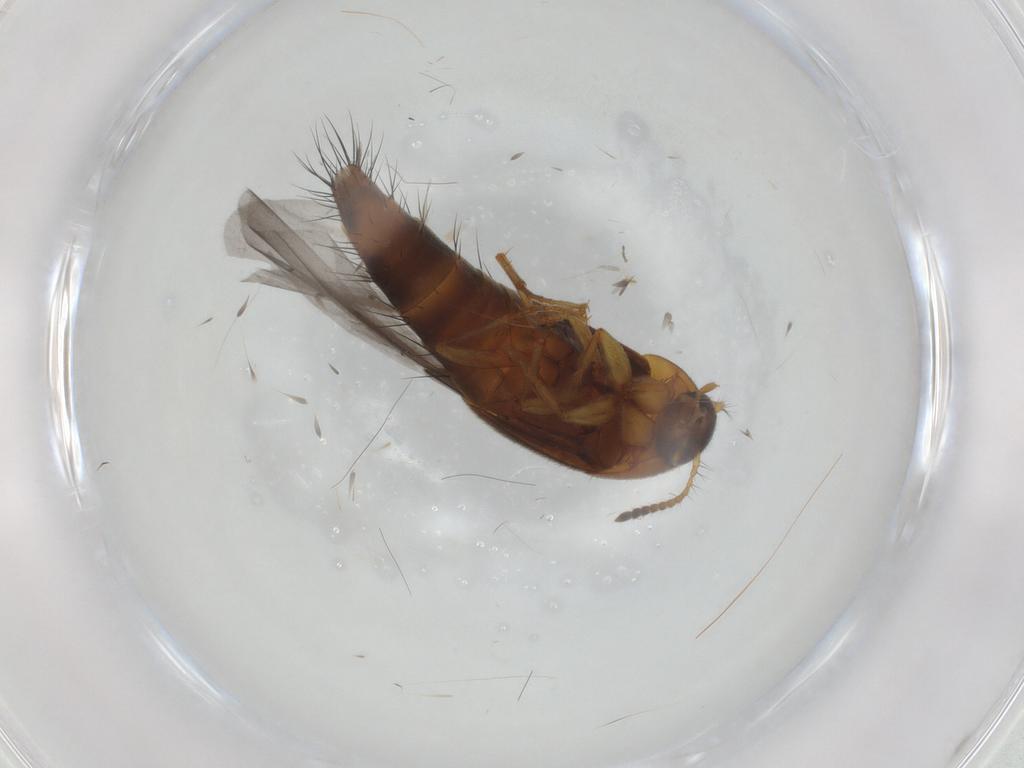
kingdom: Animalia
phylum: Arthropoda
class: Insecta
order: Coleoptera
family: Staphylinidae
